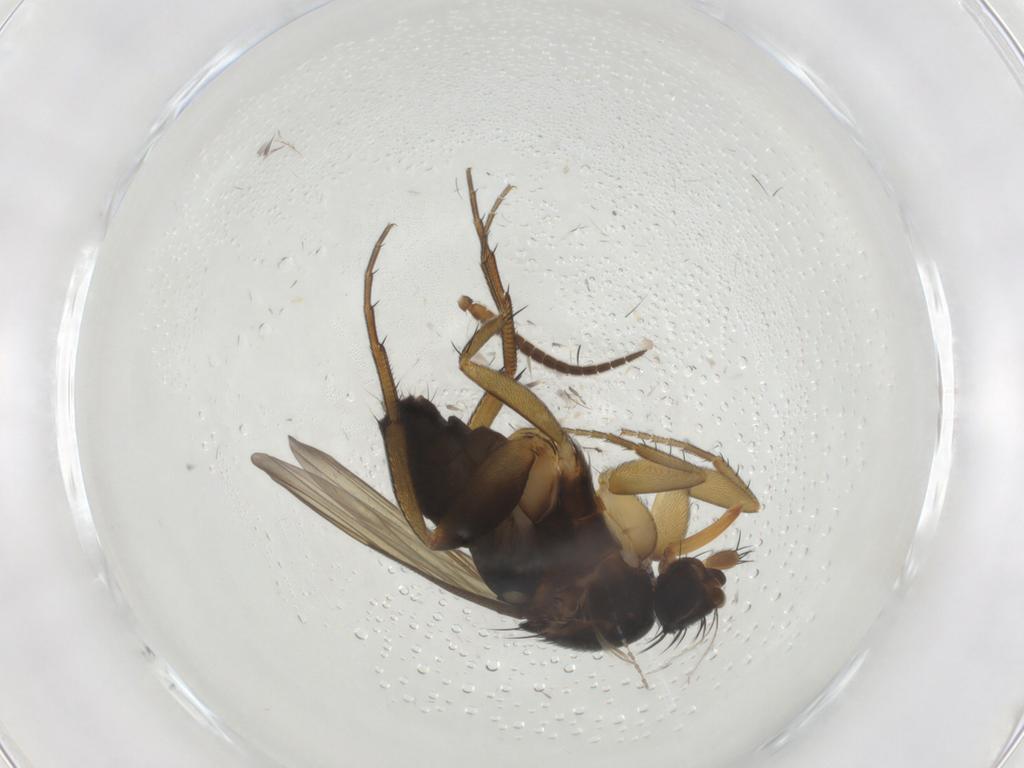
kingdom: Animalia
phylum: Arthropoda
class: Insecta
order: Diptera
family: Keroplatidae
